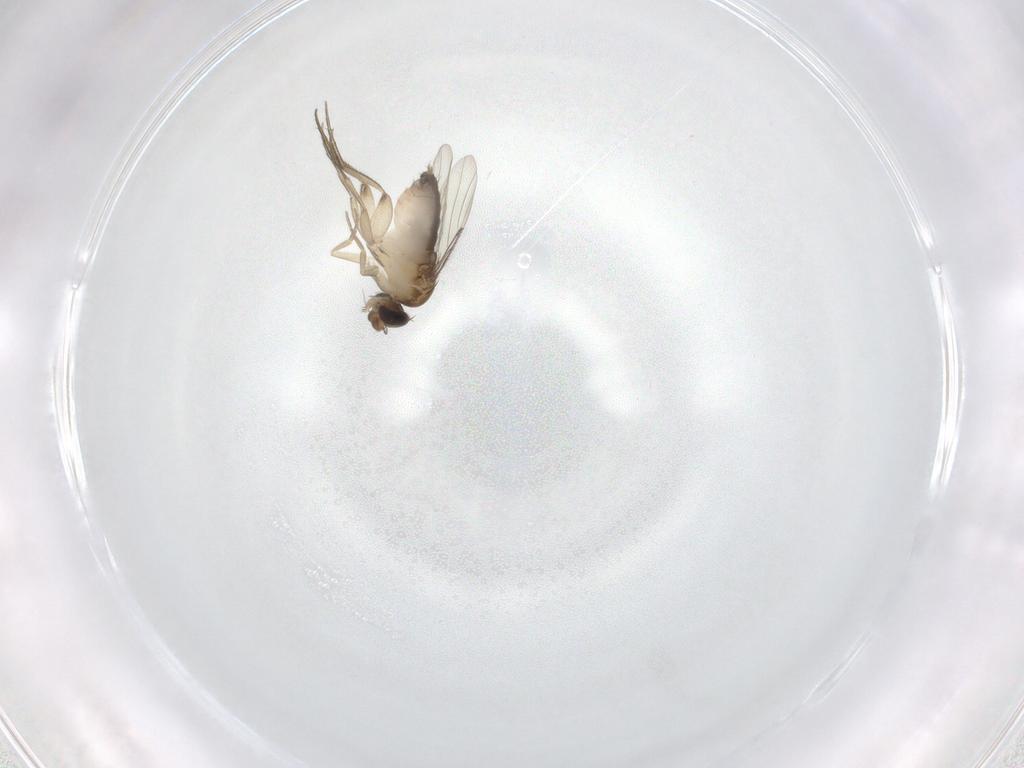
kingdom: Animalia
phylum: Arthropoda
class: Insecta
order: Diptera
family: Phoridae
